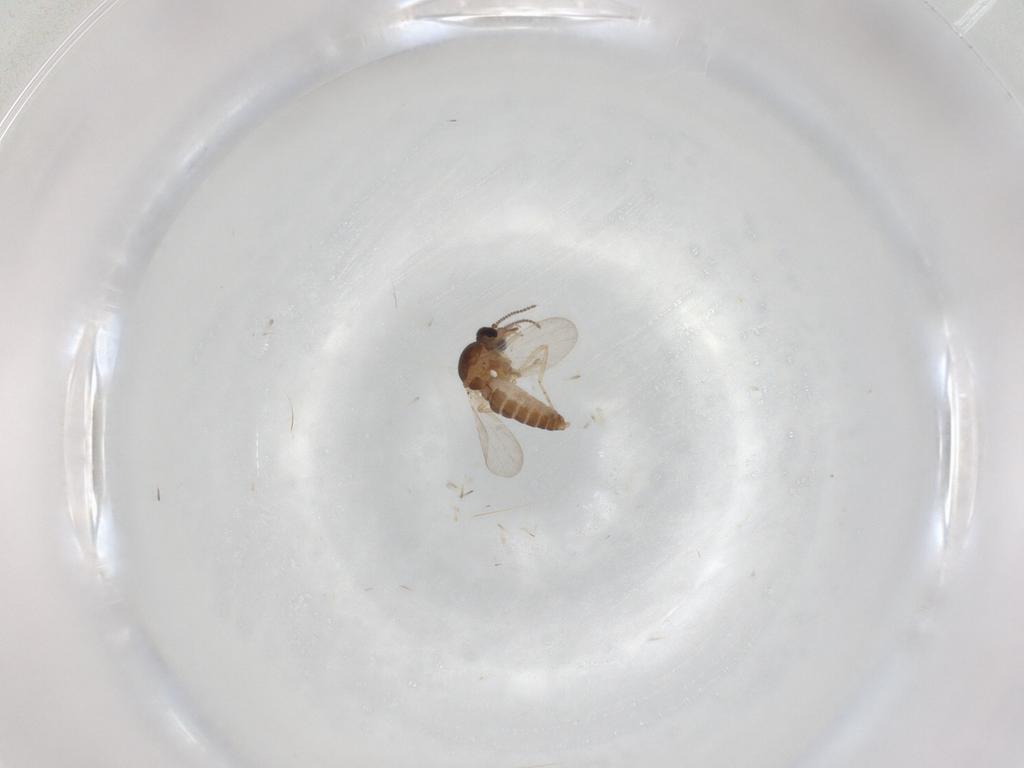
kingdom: Animalia
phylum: Arthropoda
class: Insecta
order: Diptera
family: Ceratopogonidae
